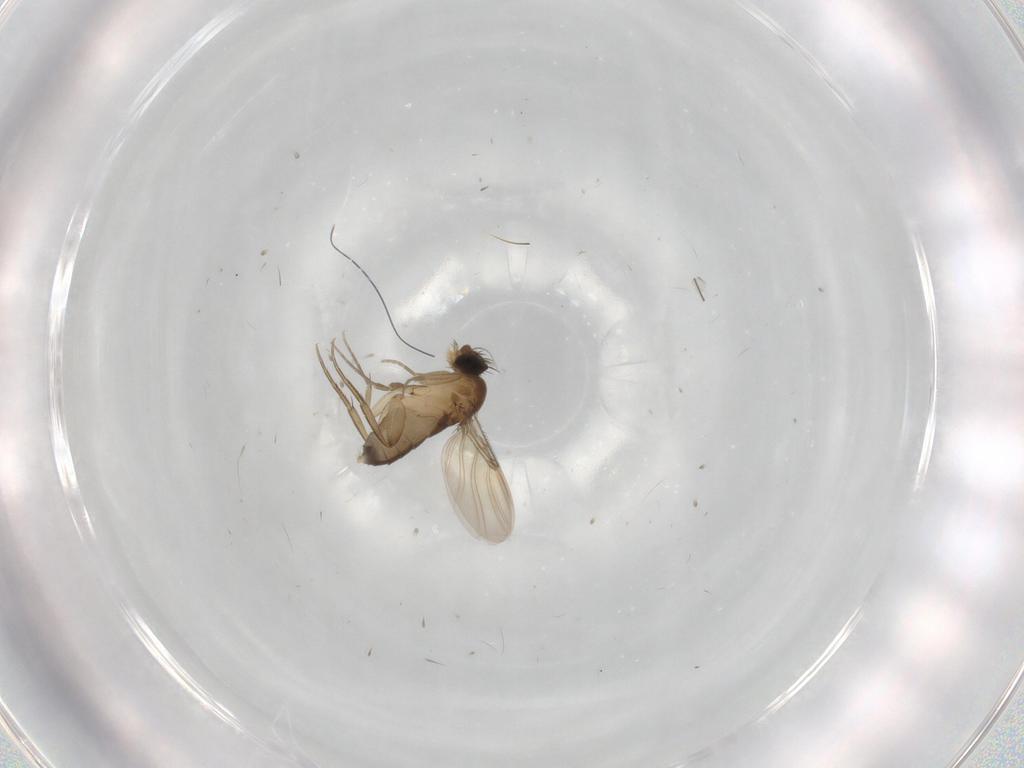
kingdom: Animalia
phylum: Arthropoda
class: Insecta
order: Diptera
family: Phoridae
